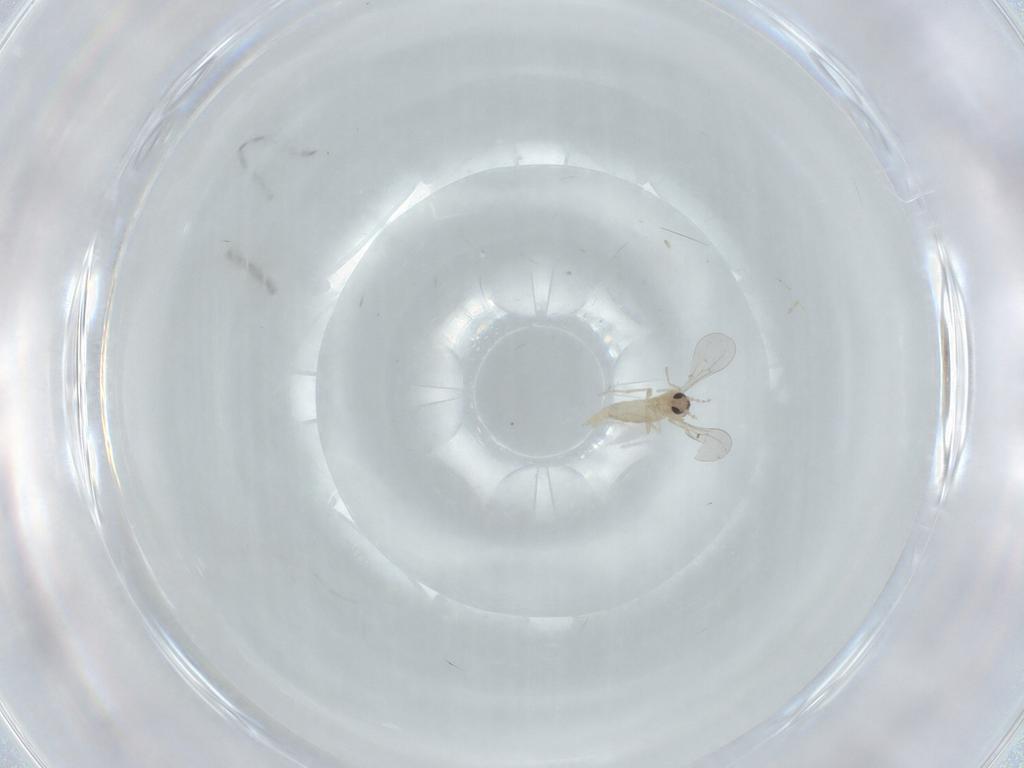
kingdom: Animalia
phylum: Arthropoda
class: Insecta
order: Diptera
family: Cecidomyiidae
